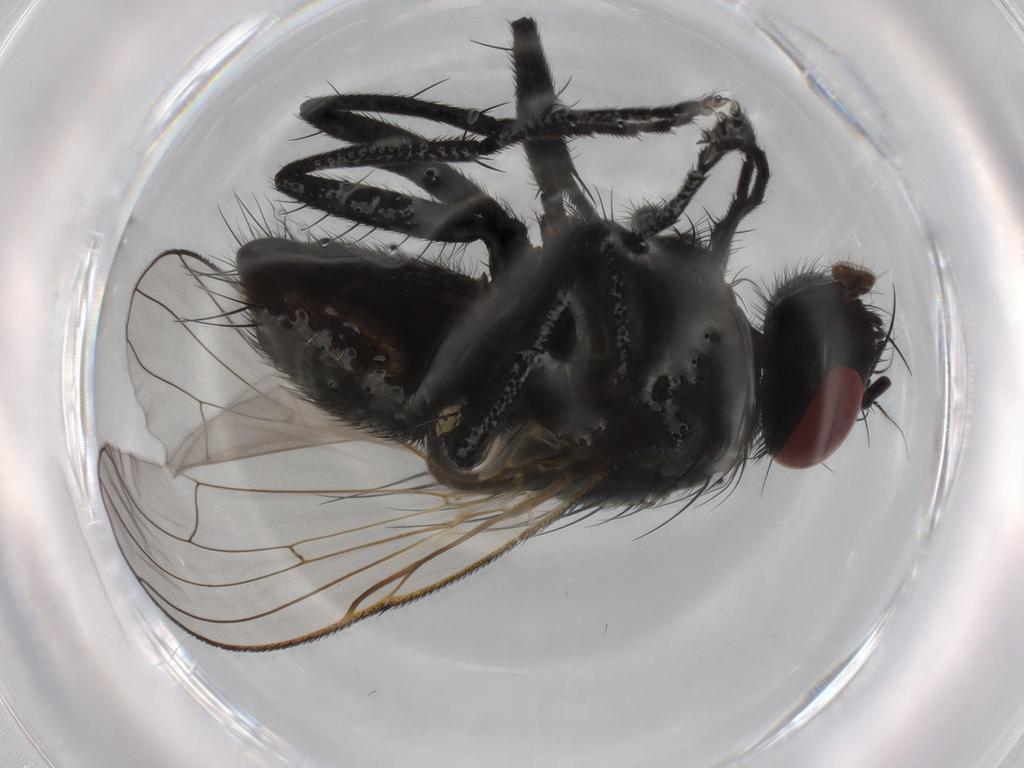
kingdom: Animalia
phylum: Arthropoda
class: Insecta
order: Diptera
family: Muscidae
